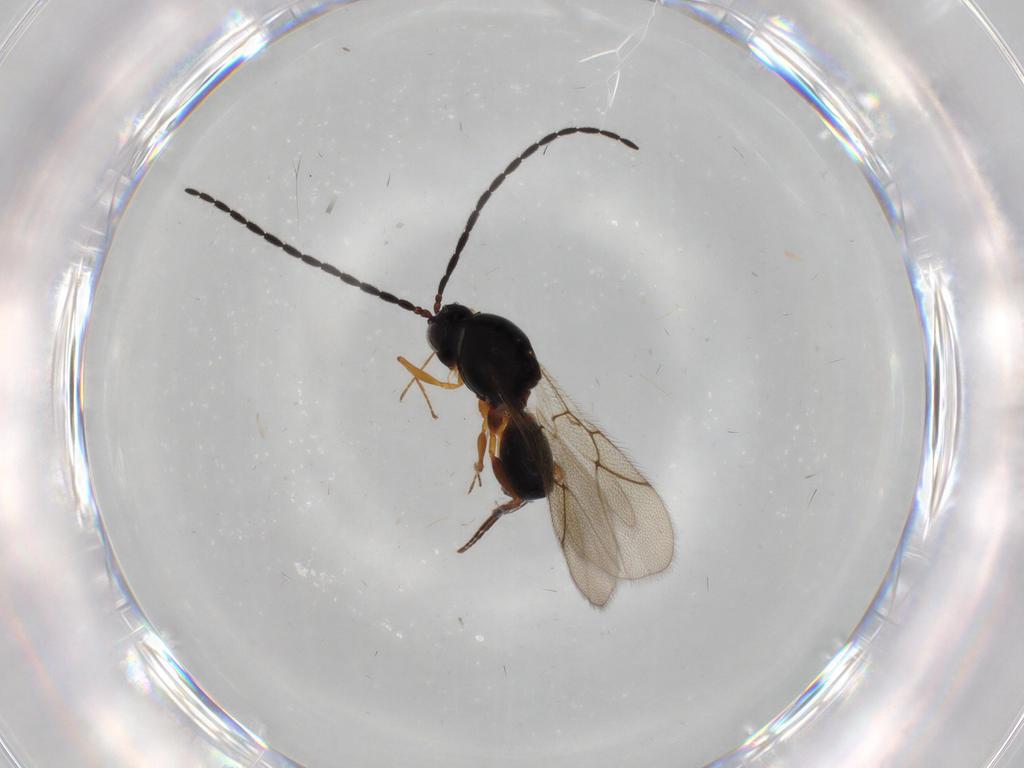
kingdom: Animalia
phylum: Arthropoda
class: Insecta
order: Hymenoptera
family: Figitidae
